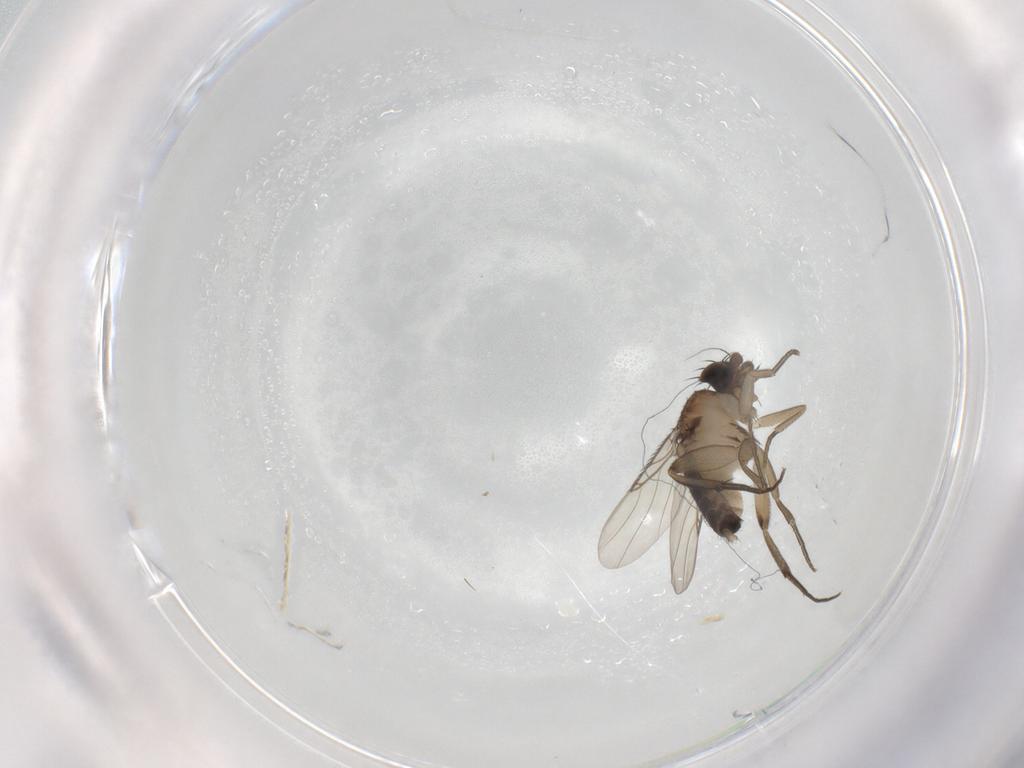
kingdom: Animalia
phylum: Arthropoda
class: Insecta
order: Diptera
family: Phoridae
